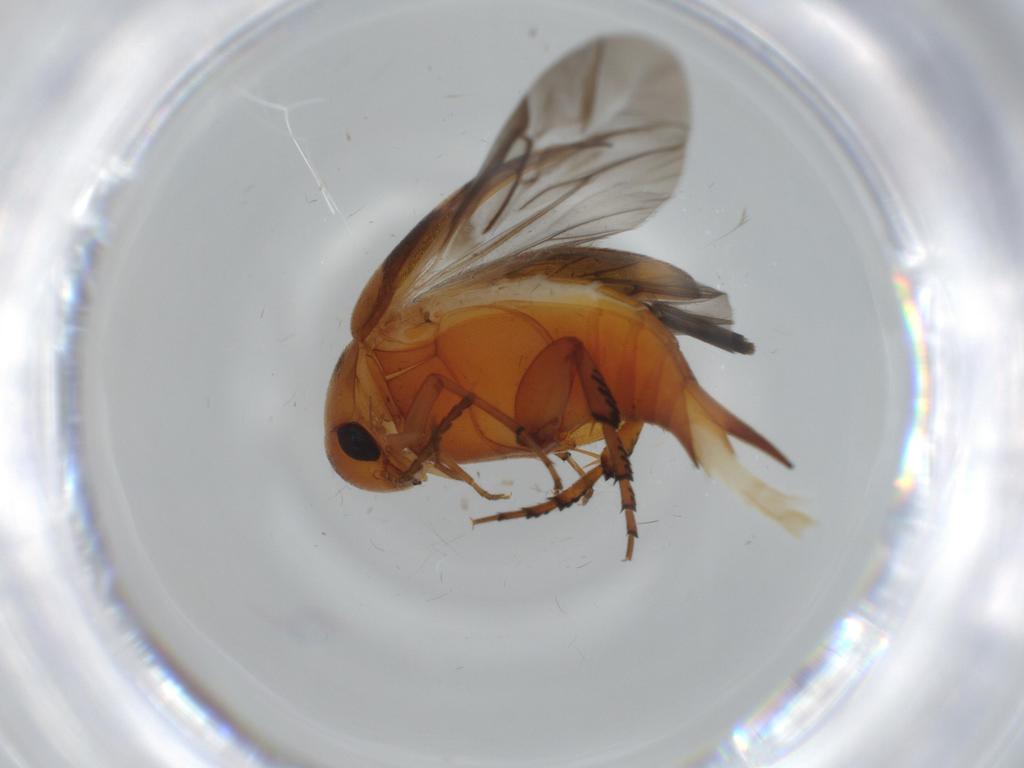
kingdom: Animalia
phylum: Arthropoda
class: Insecta
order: Coleoptera
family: Mordellidae
